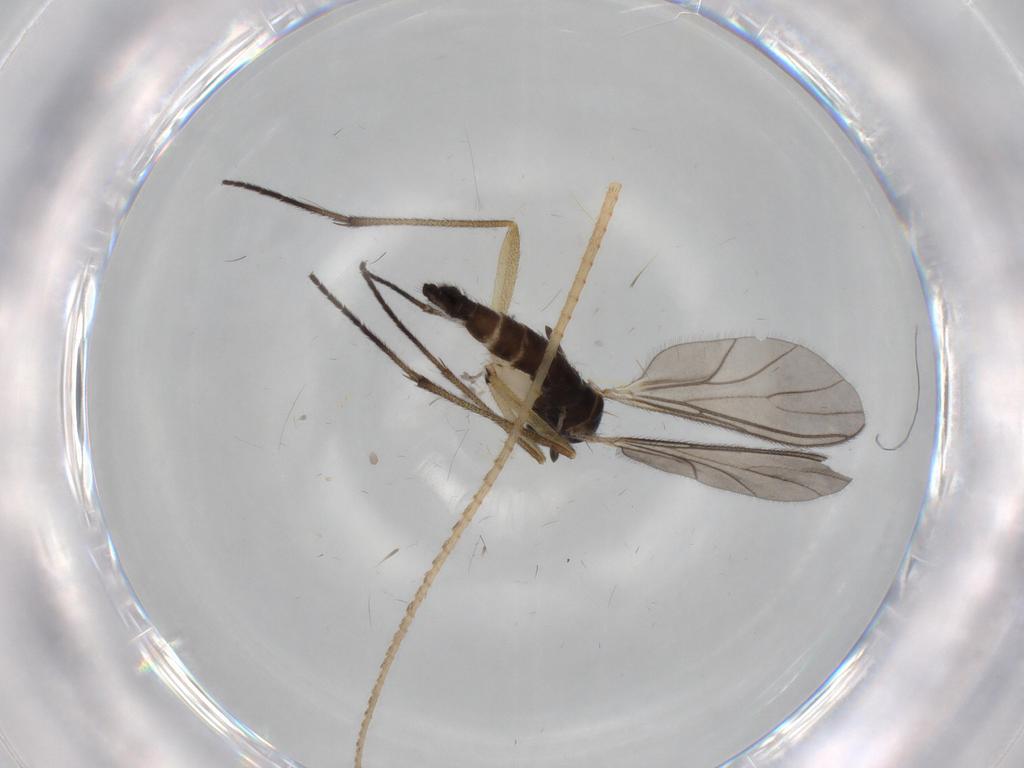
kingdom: Animalia
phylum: Arthropoda
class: Insecta
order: Diptera
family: Sciaridae
